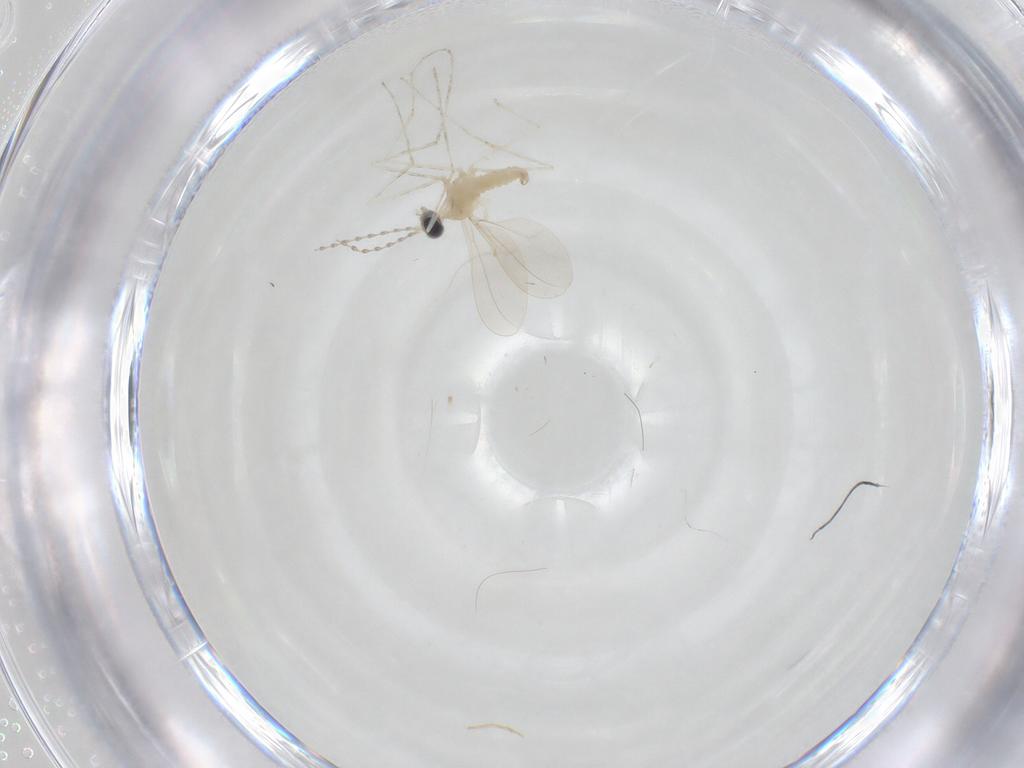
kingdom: Animalia
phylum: Arthropoda
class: Insecta
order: Diptera
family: Cecidomyiidae
